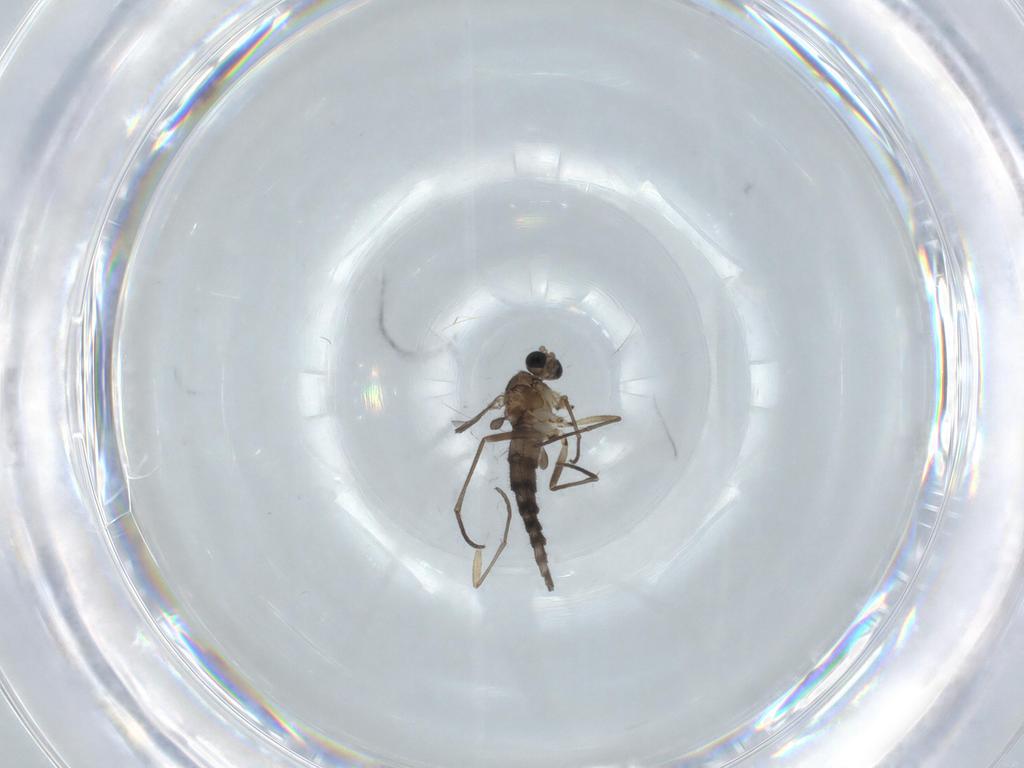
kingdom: Animalia
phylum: Arthropoda
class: Insecta
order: Diptera
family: Sciaridae
